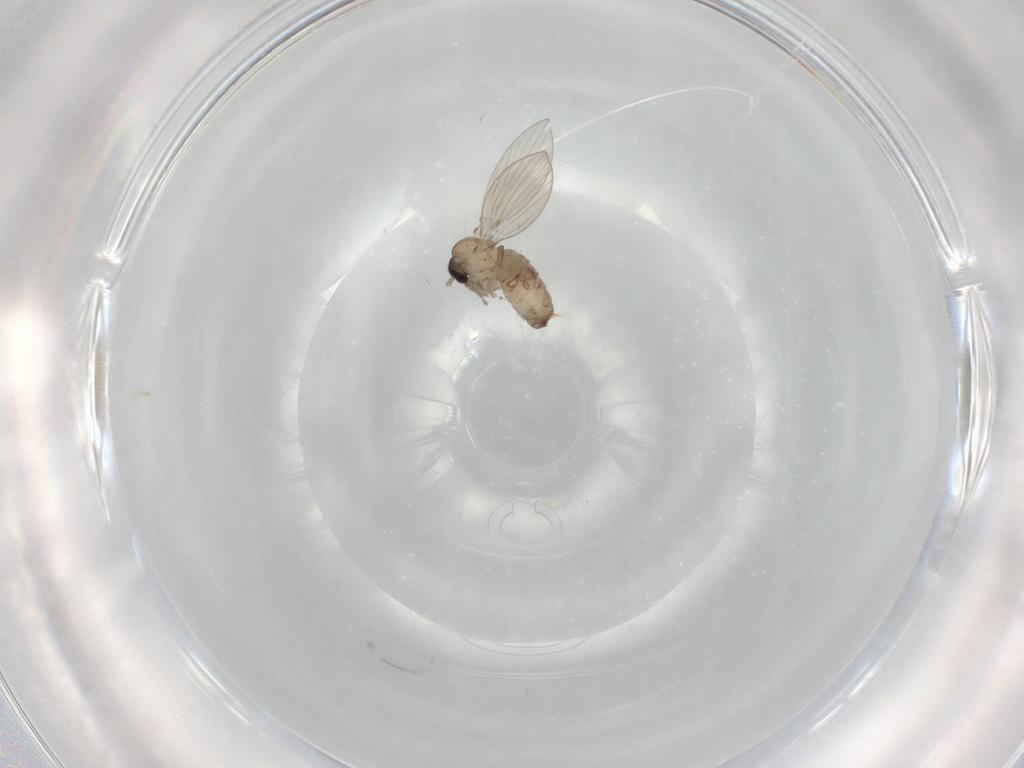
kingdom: Animalia
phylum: Arthropoda
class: Insecta
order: Diptera
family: Psychodidae
